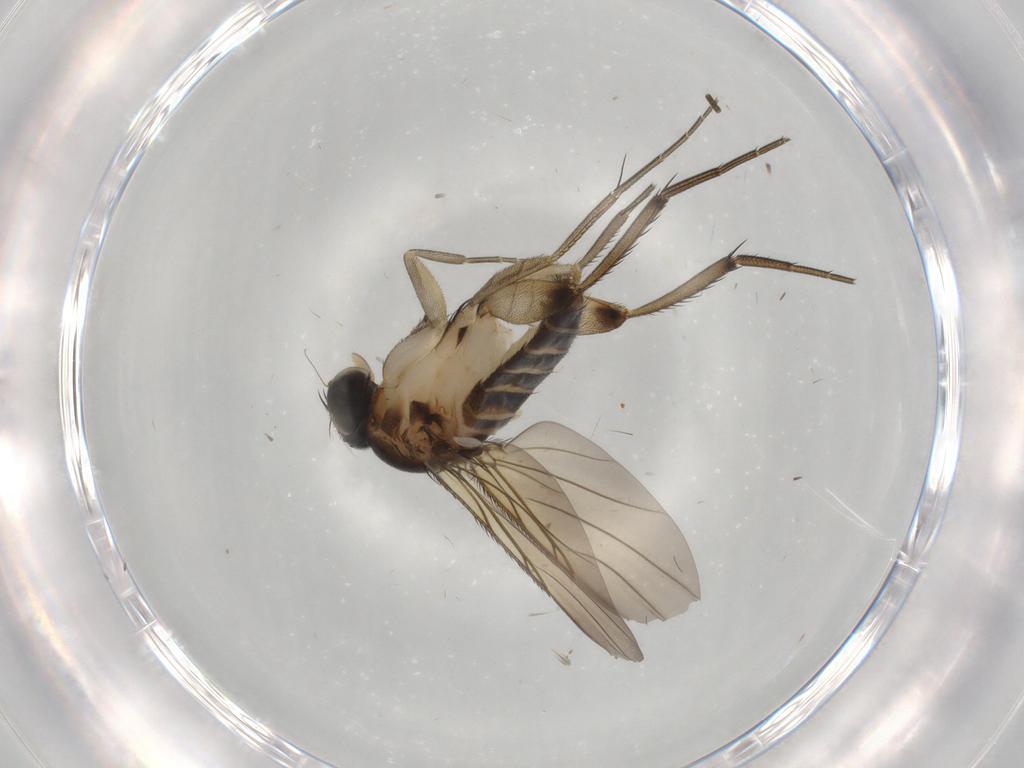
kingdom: Animalia
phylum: Arthropoda
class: Insecta
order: Diptera
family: Phoridae
